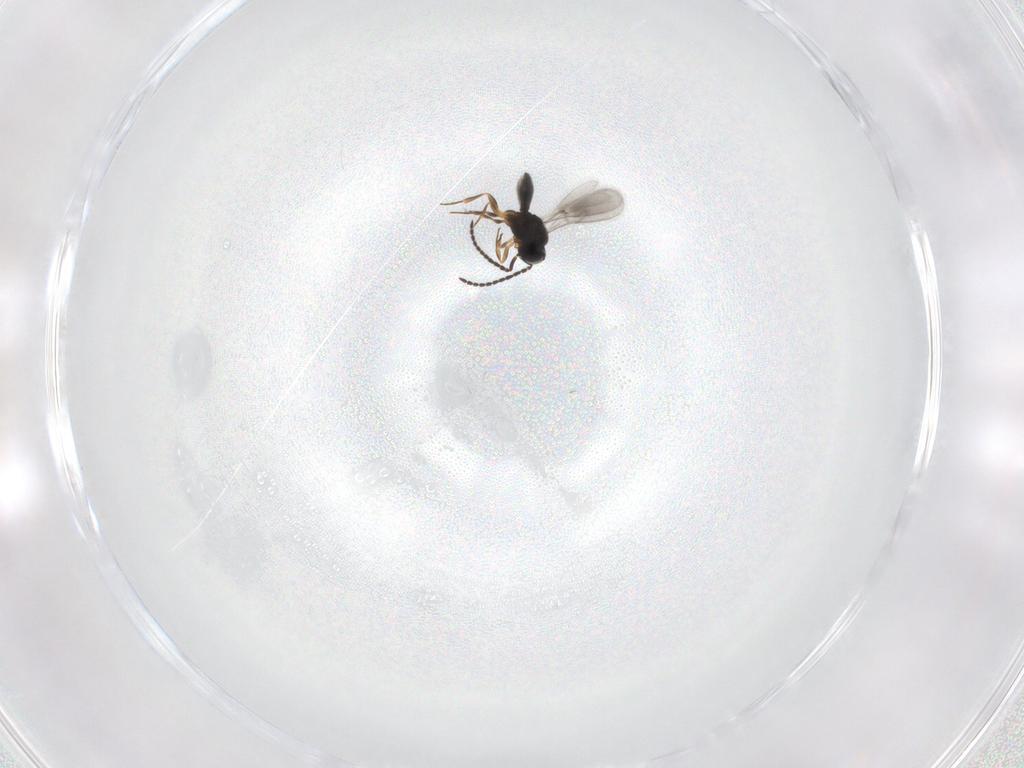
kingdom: Animalia
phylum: Arthropoda
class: Insecta
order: Hymenoptera
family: Scelionidae
